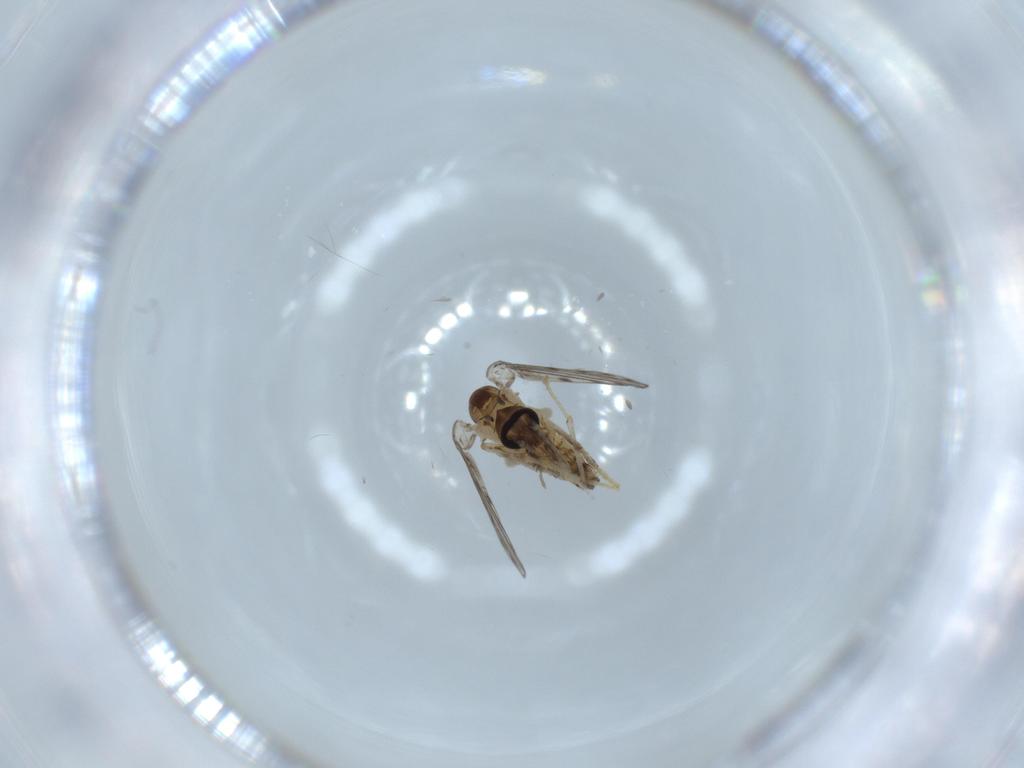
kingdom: Animalia
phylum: Arthropoda
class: Insecta
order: Diptera
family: Psychodidae
